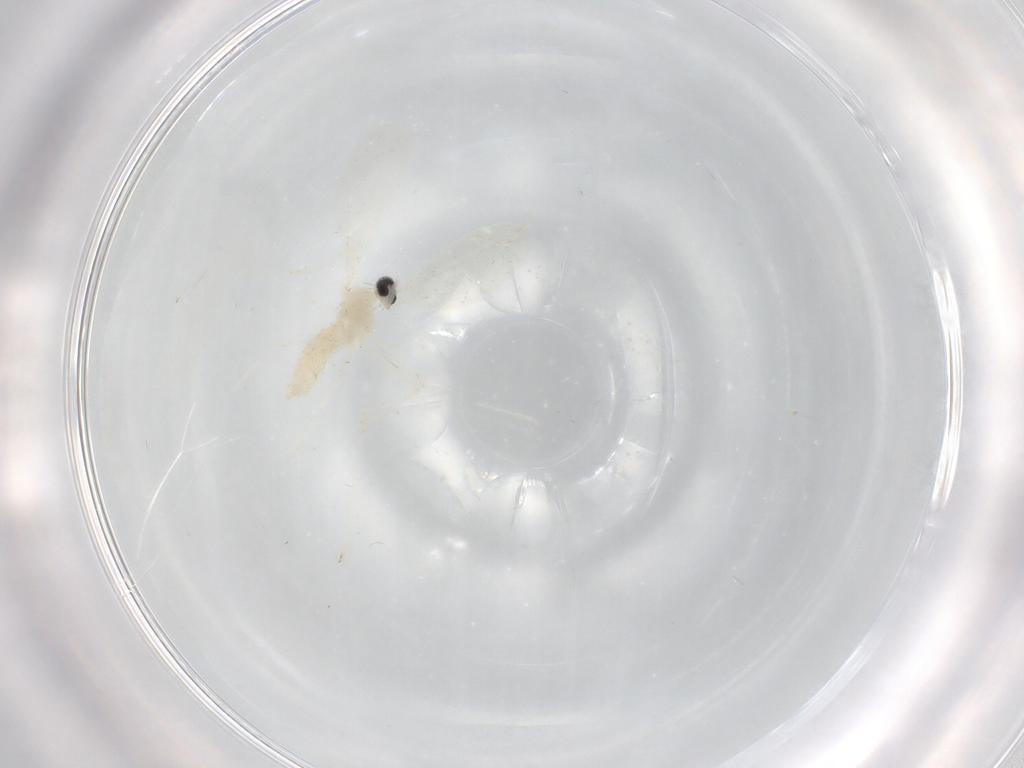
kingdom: Animalia
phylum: Arthropoda
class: Insecta
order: Diptera
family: Cecidomyiidae
